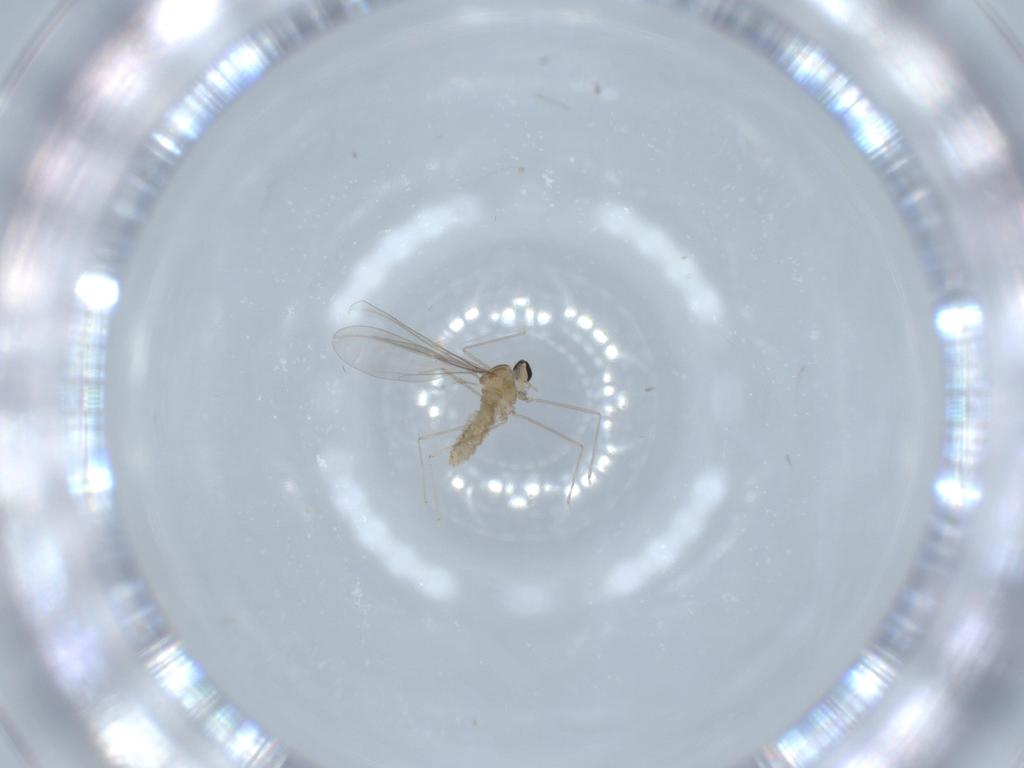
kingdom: Animalia
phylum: Arthropoda
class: Insecta
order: Diptera
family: Cecidomyiidae
